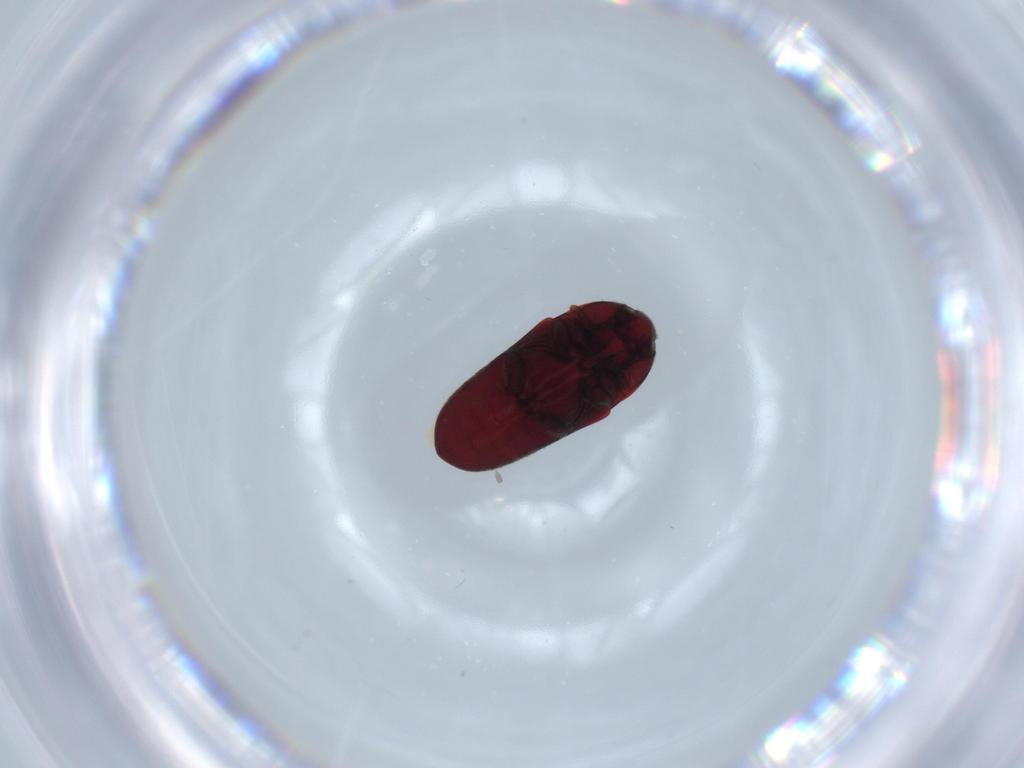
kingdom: Animalia
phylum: Arthropoda
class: Insecta
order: Coleoptera
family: Throscidae
